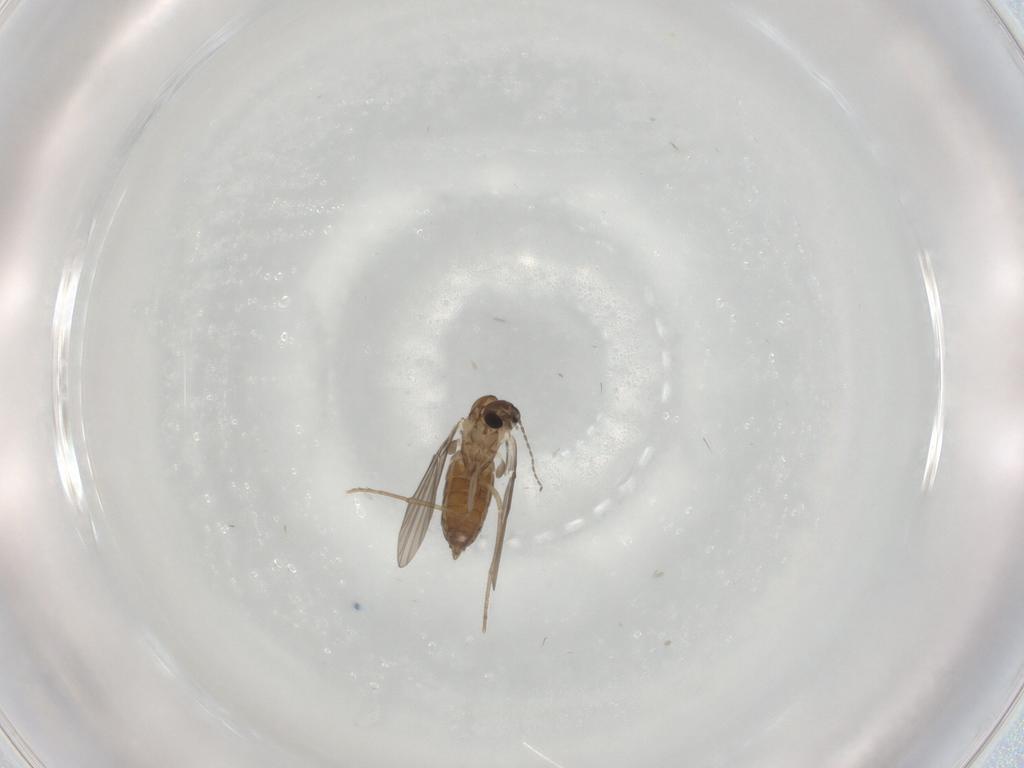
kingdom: Animalia
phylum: Arthropoda
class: Insecta
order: Diptera
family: Cecidomyiidae
